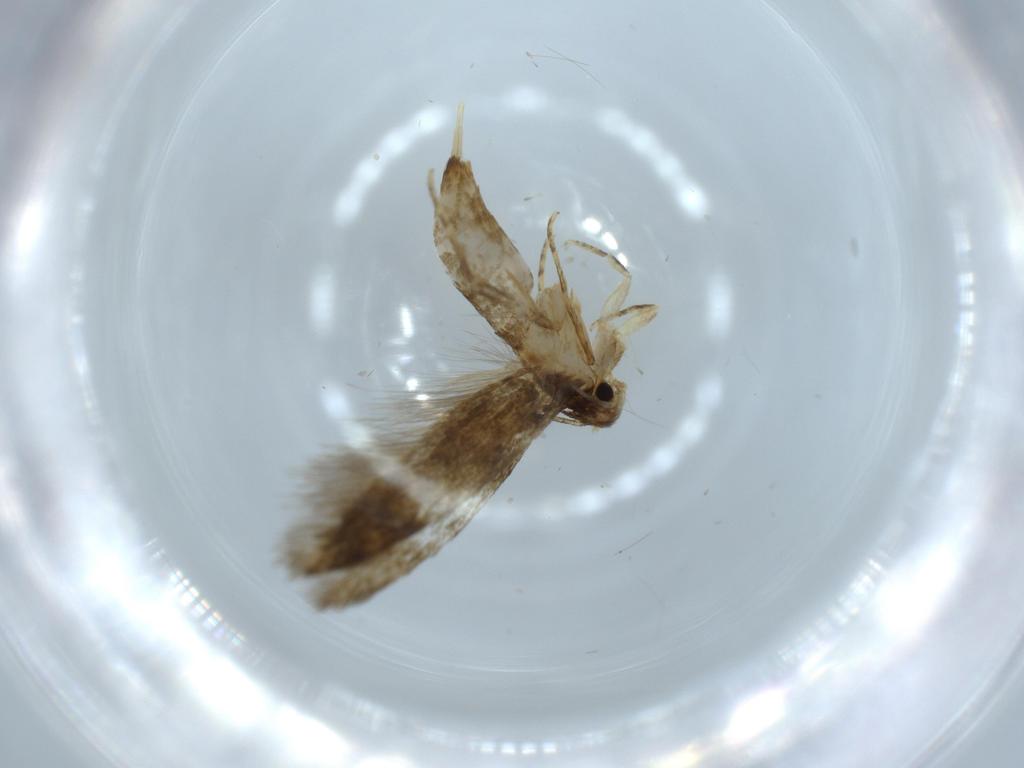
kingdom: Animalia
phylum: Arthropoda
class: Insecta
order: Lepidoptera
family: Tineidae
